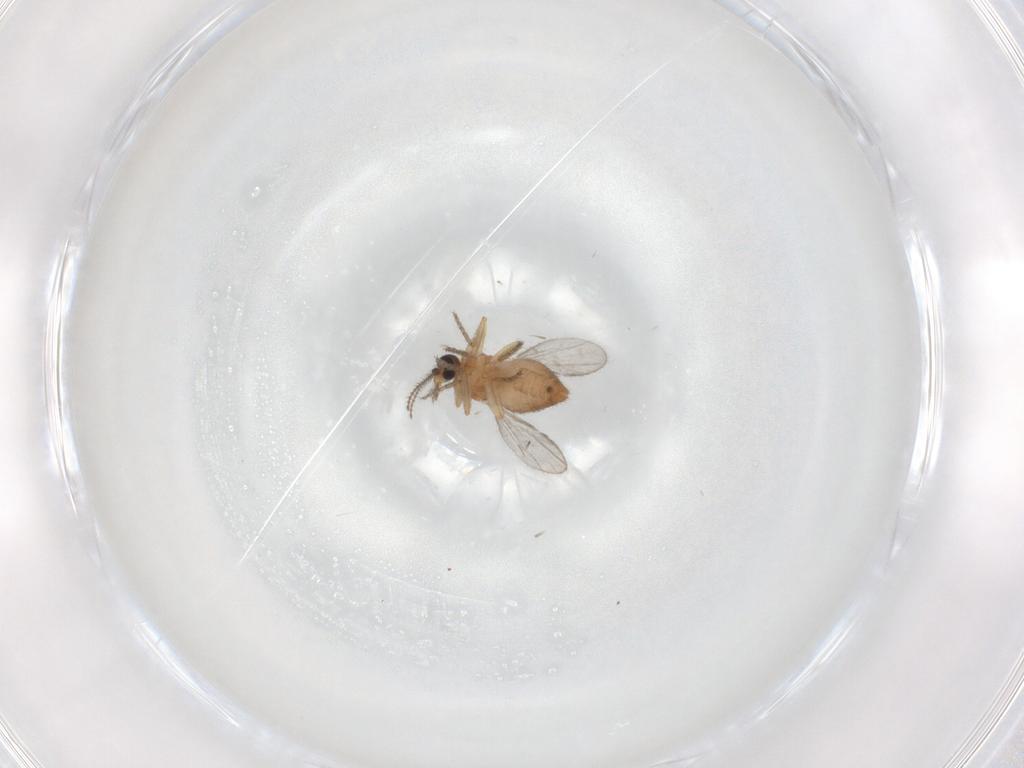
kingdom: Animalia
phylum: Arthropoda
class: Insecta
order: Diptera
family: Ceratopogonidae
